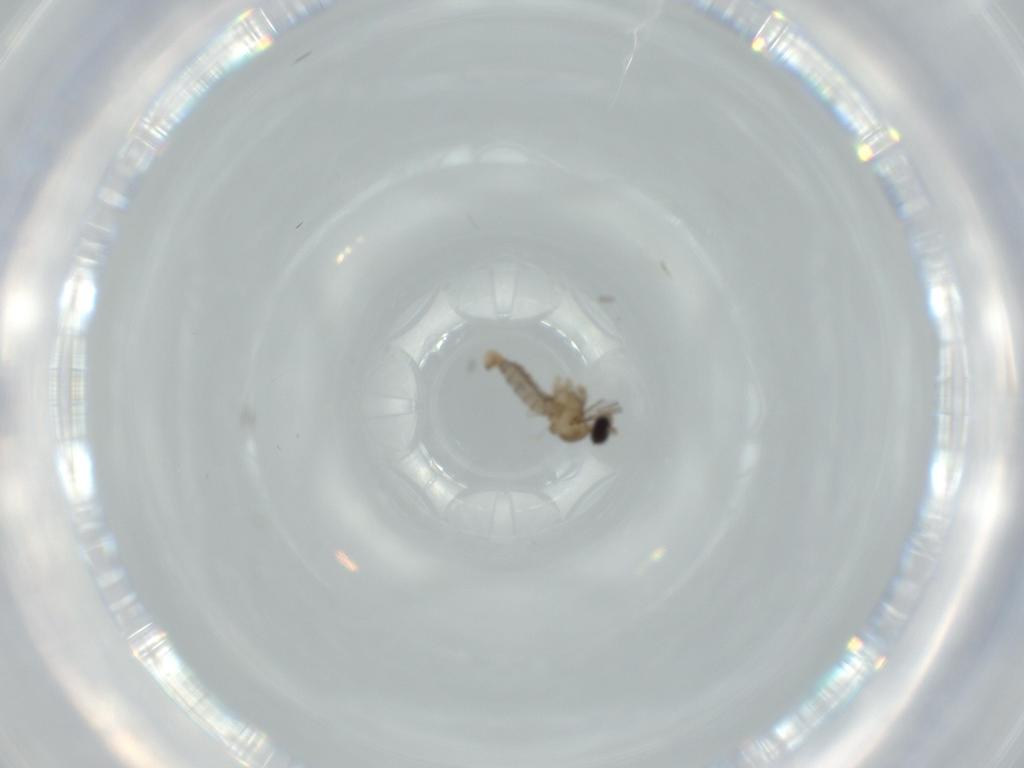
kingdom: Animalia
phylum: Arthropoda
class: Insecta
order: Diptera
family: Cecidomyiidae
